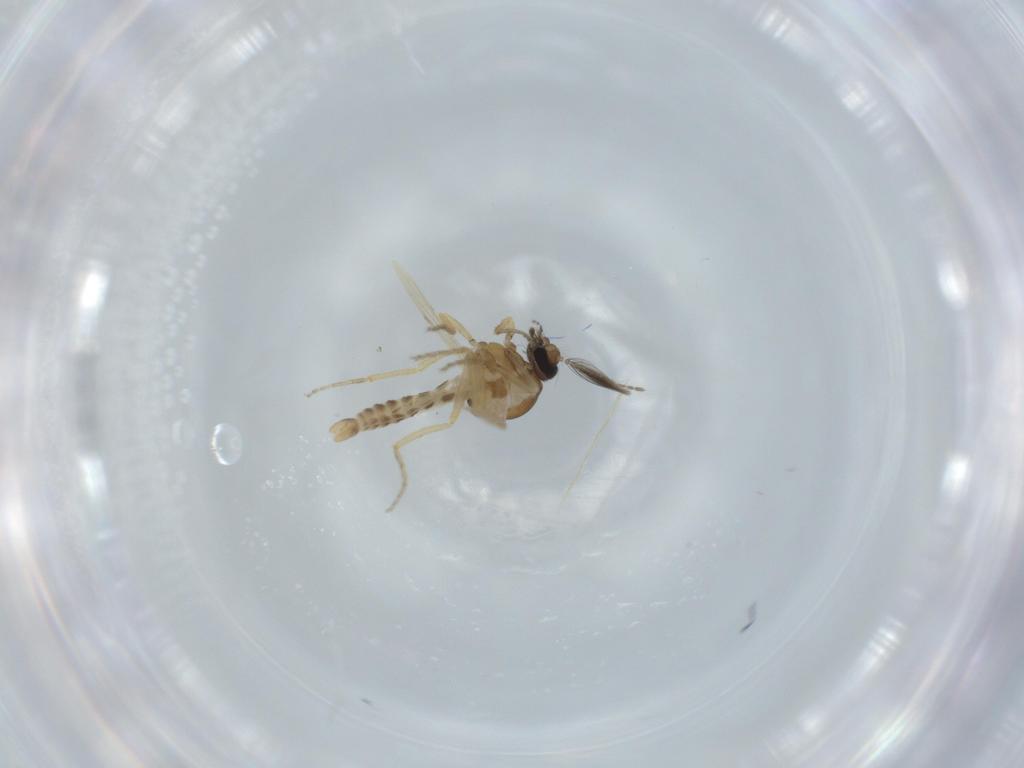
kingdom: Animalia
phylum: Arthropoda
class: Insecta
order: Diptera
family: Ceratopogonidae
